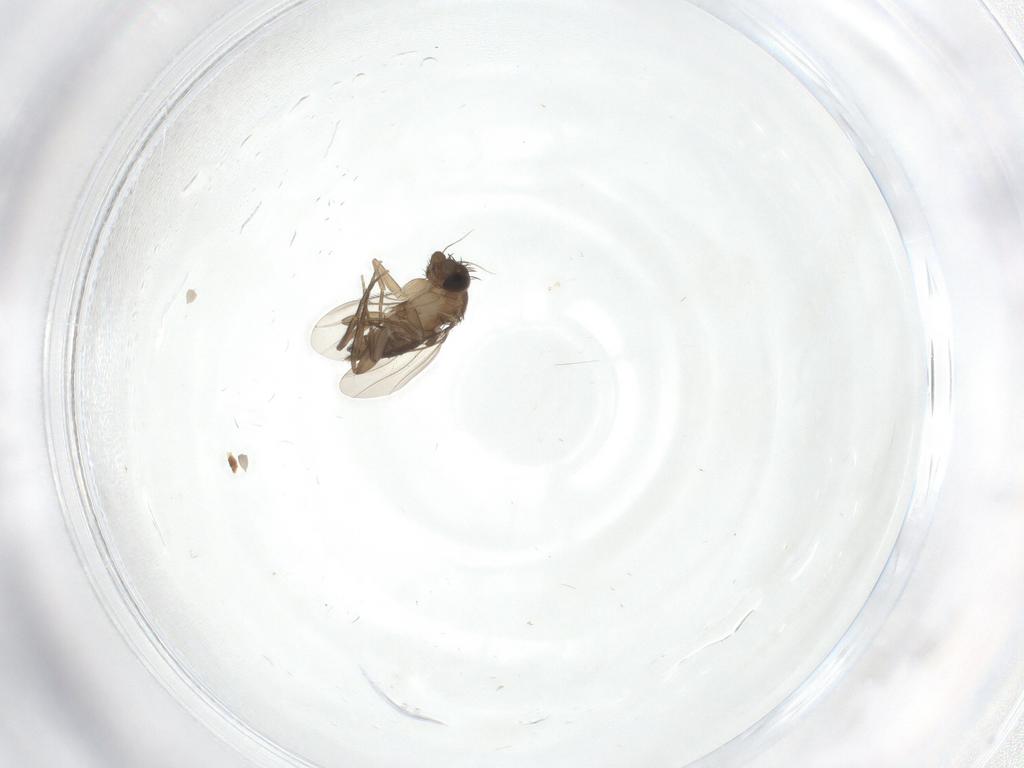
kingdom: Animalia
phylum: Arthropoda
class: Insecta
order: Diptera
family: Phoridae
